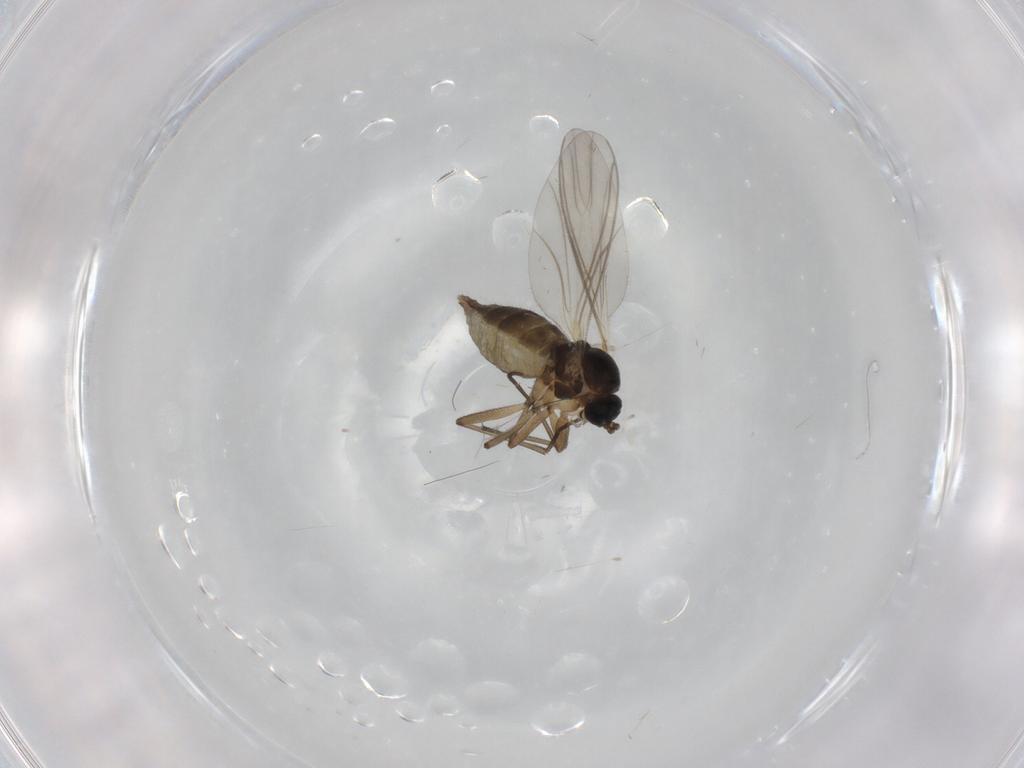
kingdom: Animalia
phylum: Arthropoda
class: Insecta
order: Diptera
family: Psychodidae
